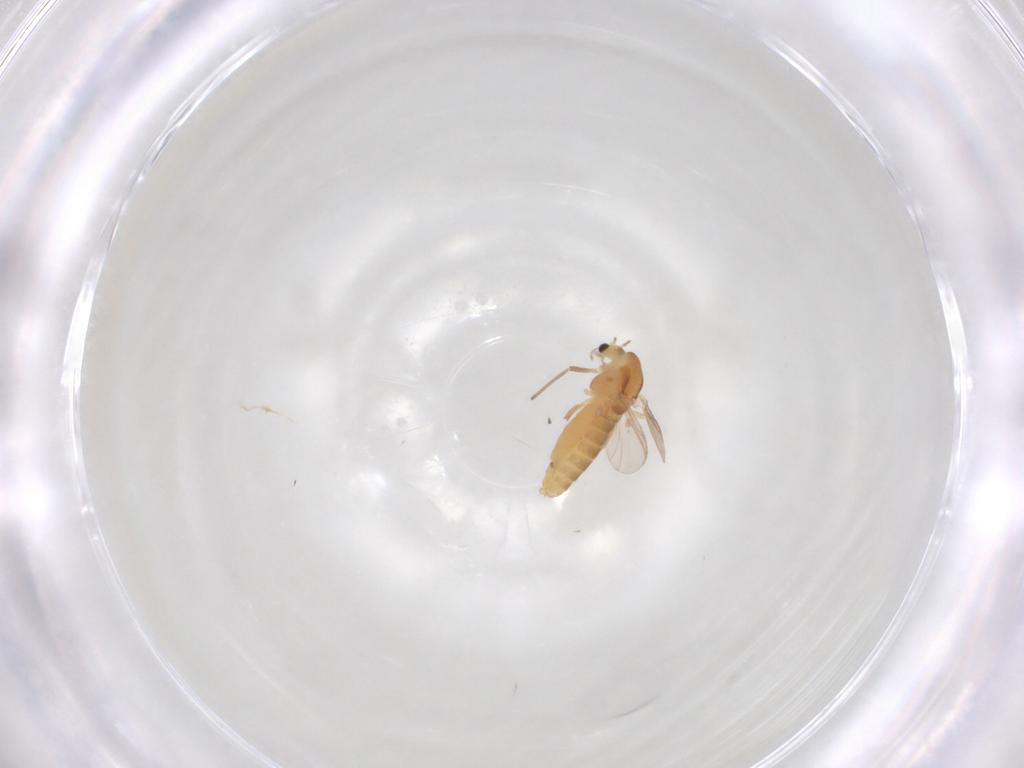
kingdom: Animalia
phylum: Arthropoda
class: Insecta
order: Diptera
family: Chironomidae
